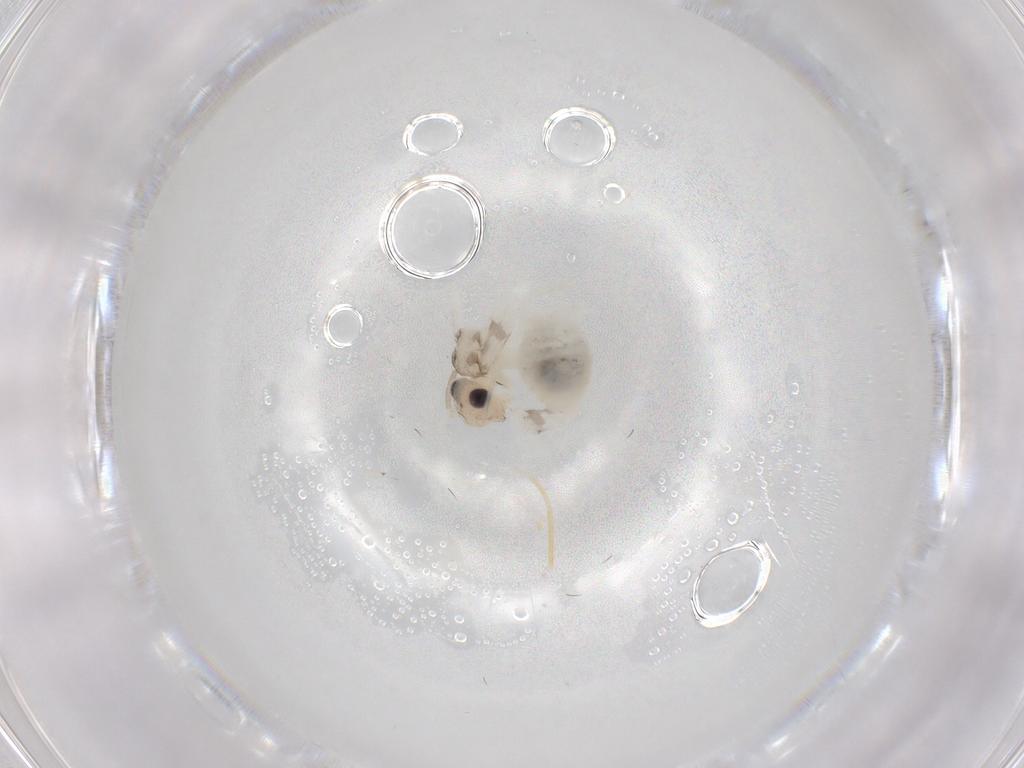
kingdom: Animalia
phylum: Arthropoda
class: Insecta
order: Psocodea
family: Caeciliusidae
